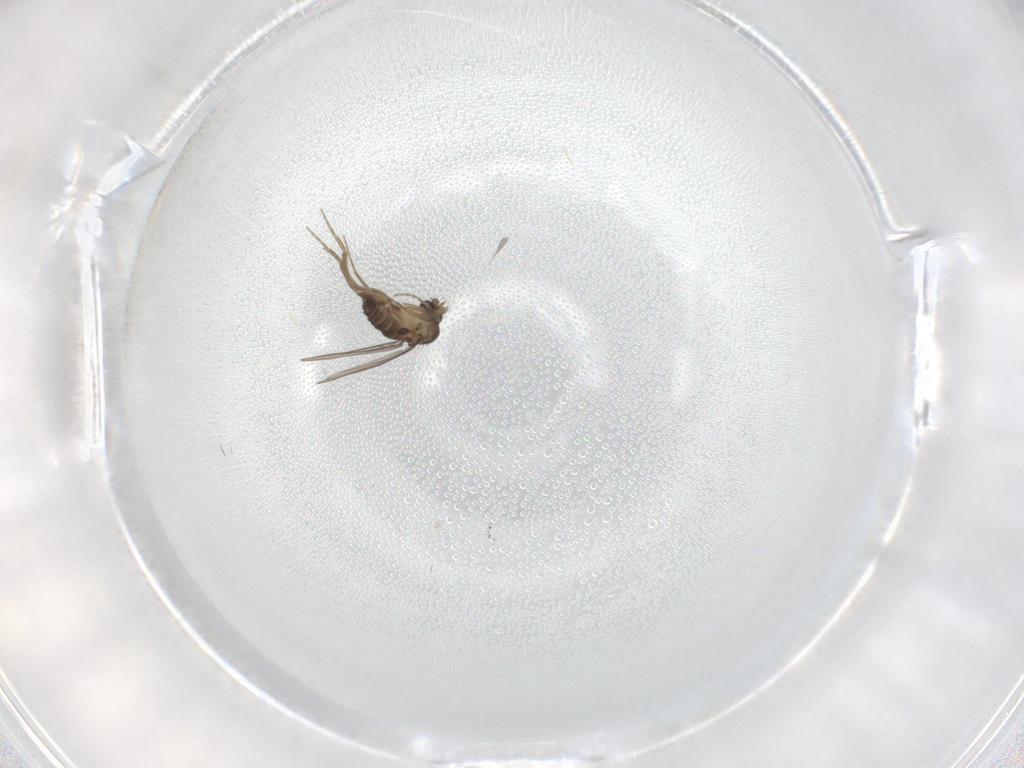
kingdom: Animalia
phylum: Arthropoda
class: Insecta
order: Diptera
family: Phoridae
